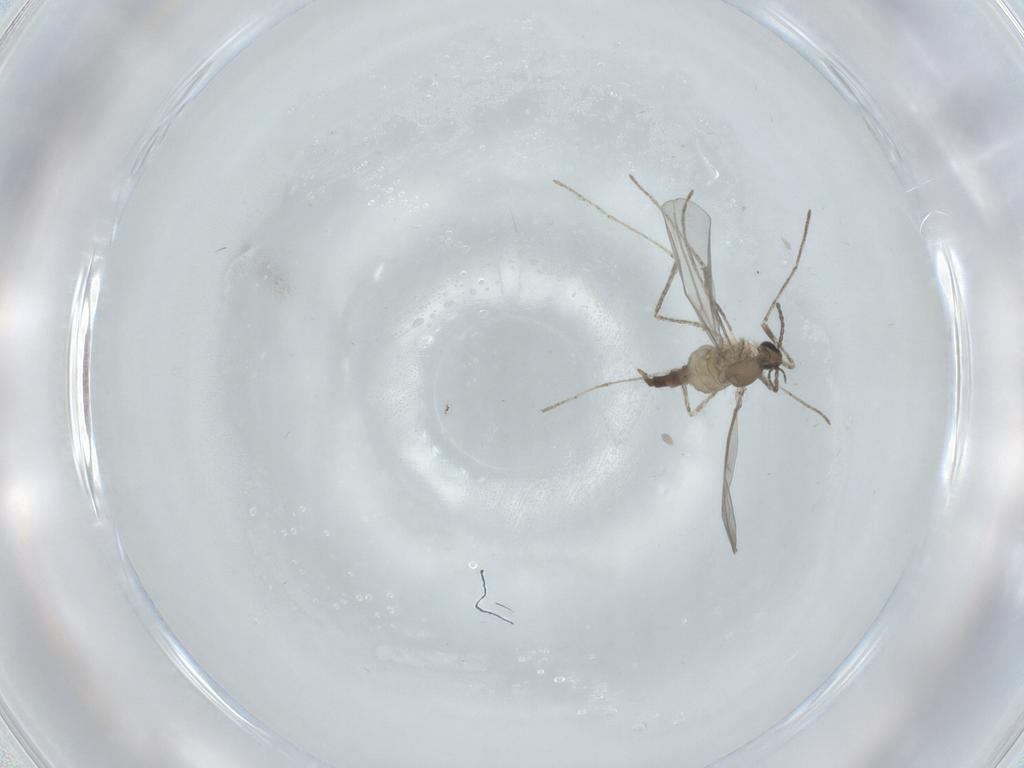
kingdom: Animalia
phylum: Arthropoda
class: Insecta
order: Diptera
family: Cecidomyiidae
